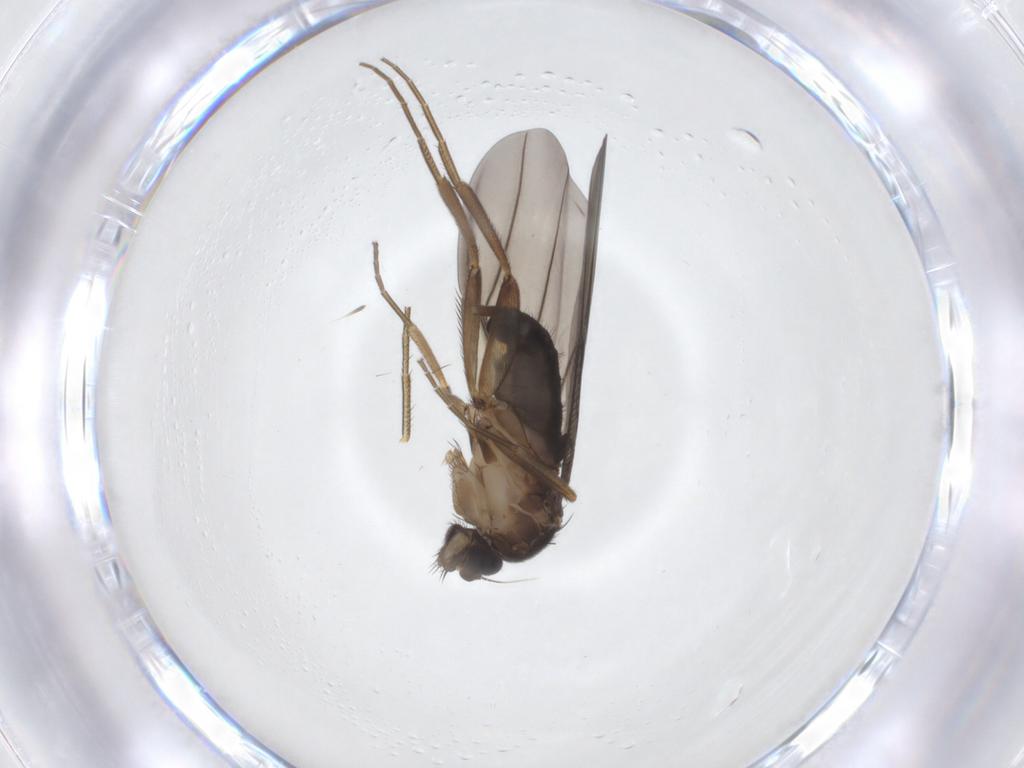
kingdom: Animalia
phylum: Arthropoda
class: Insecta
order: Diptera
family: Phoridae
